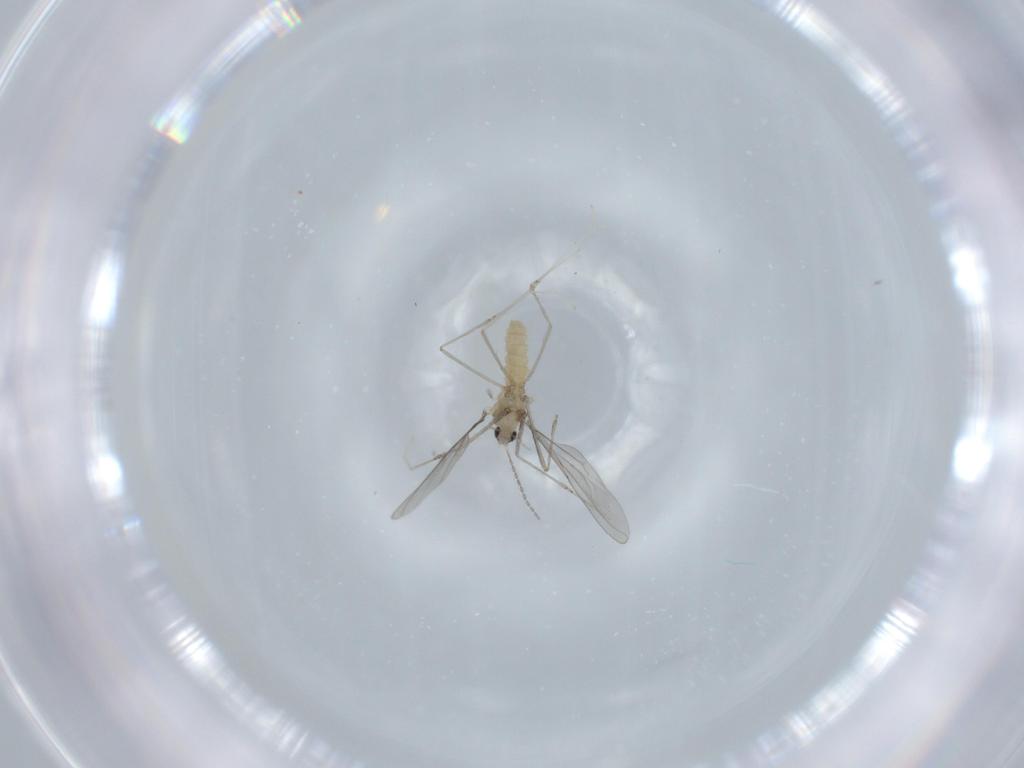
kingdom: Animalia
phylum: Arthropoda
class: Insecta
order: Diptera
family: Cecidomyiidae
